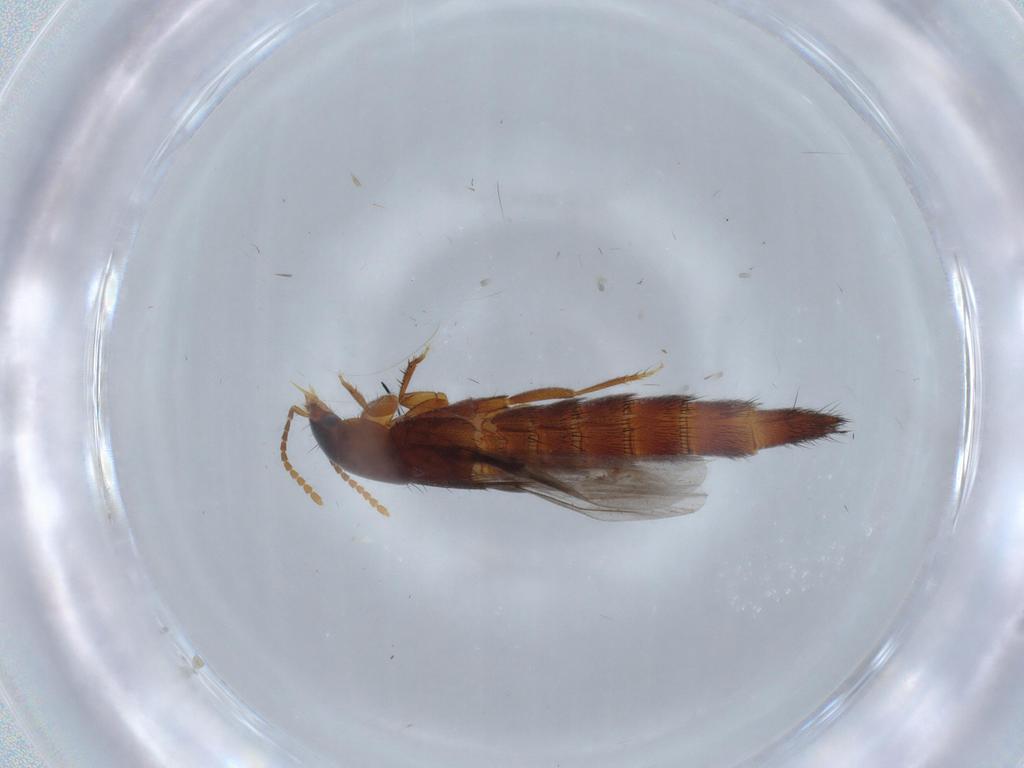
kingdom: Animalia
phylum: Arthropoda
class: Insecta
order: Coleoptera
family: Staphylinidae
